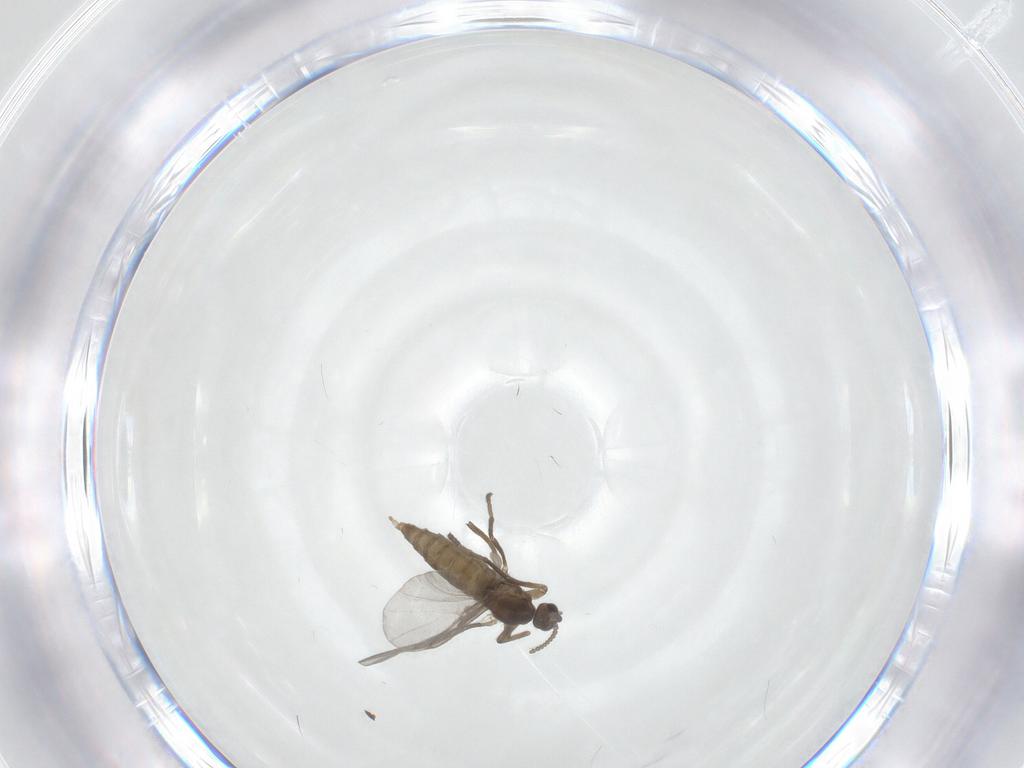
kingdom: Animalia
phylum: Arthropoda
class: Insecta
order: Diptera
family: Cecidomyiidae
